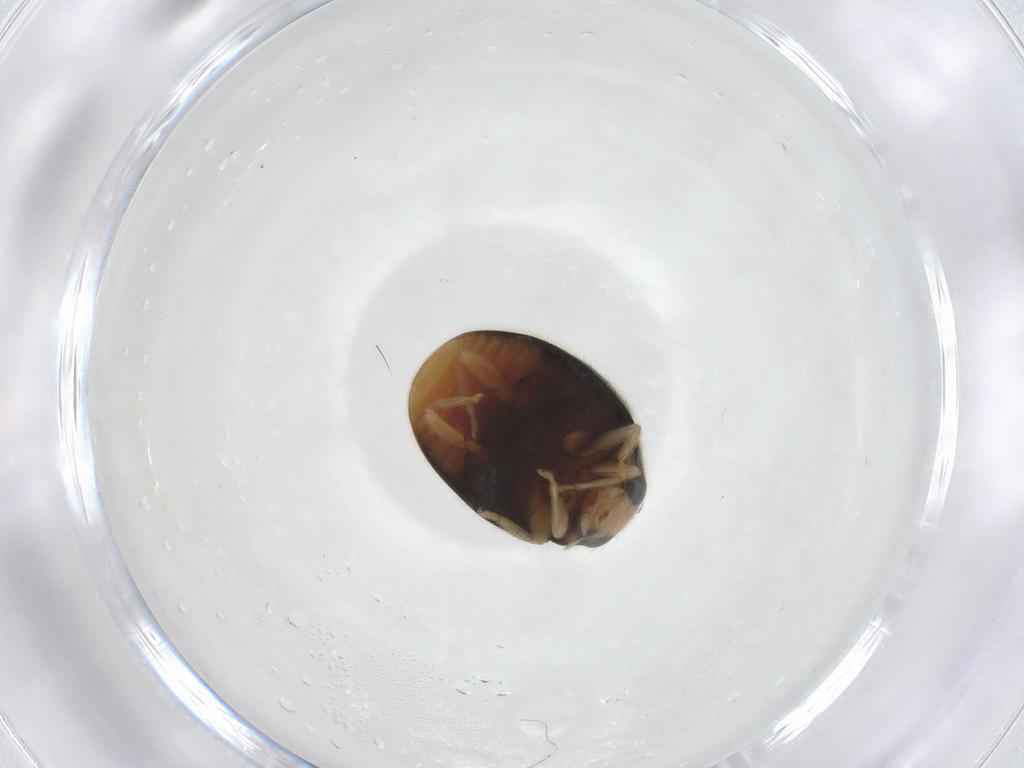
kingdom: Animalia
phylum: Arthropoda
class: Insecta
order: Coleoptera
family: Coccinellidae
